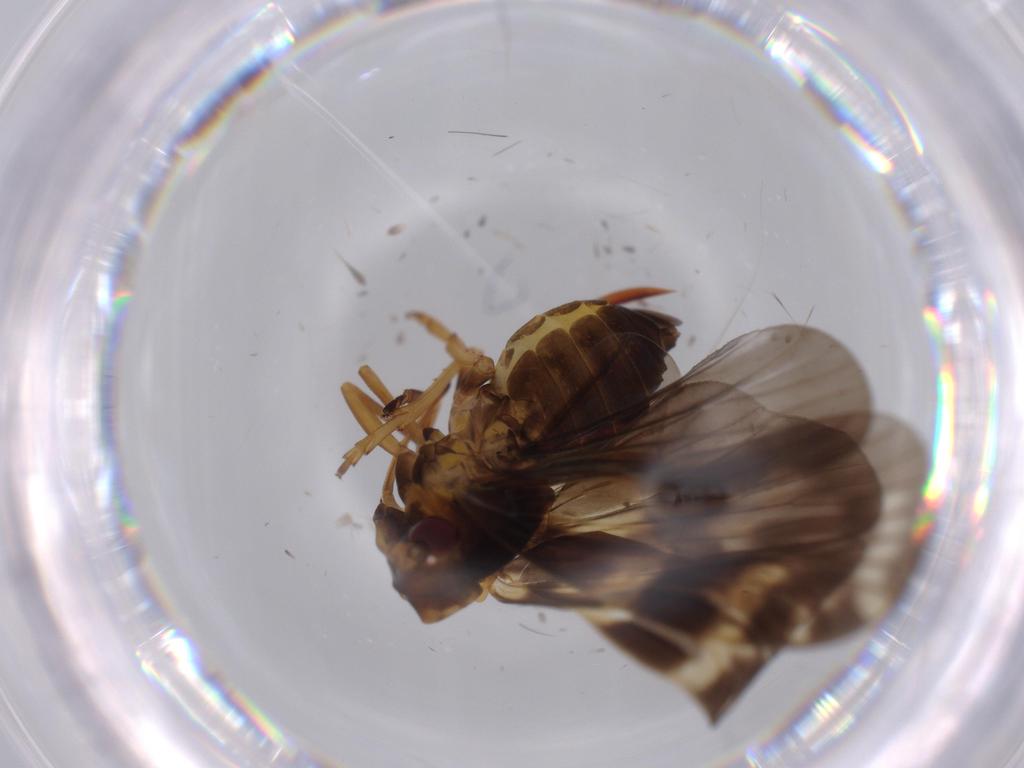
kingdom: Animalia
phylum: Arthropoda
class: Insecta
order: Hemiptera
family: Cixiidae
